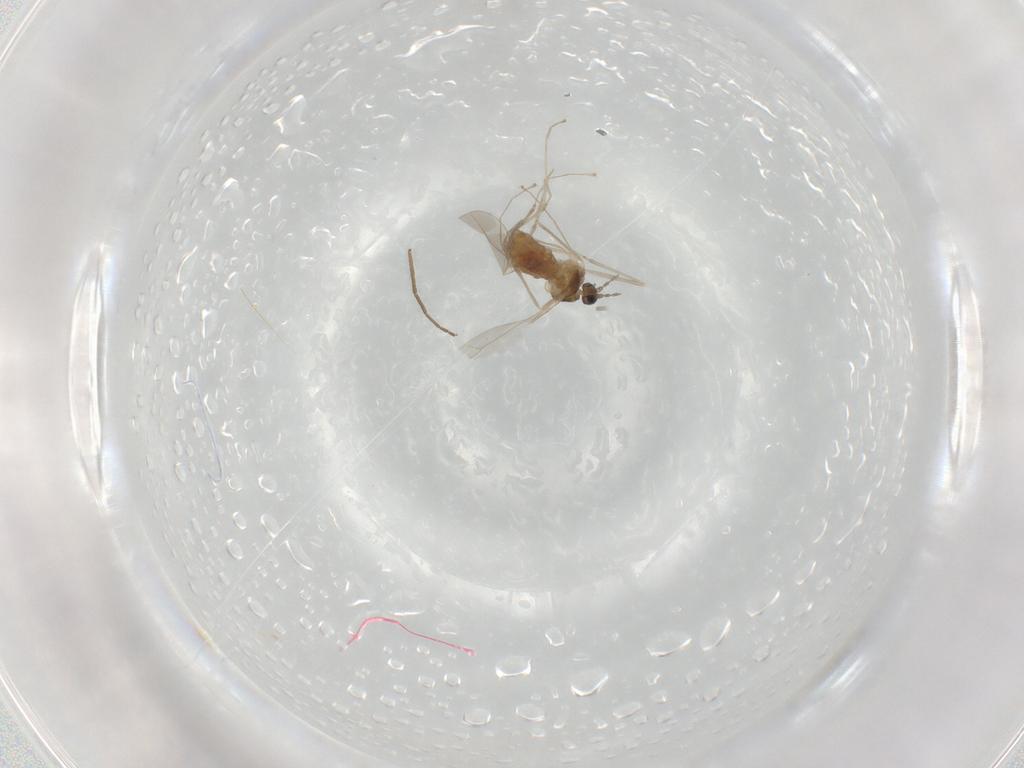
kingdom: Animalia
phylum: Arthropoda
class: Insecta
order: Diptera
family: Cecidomyiidae
